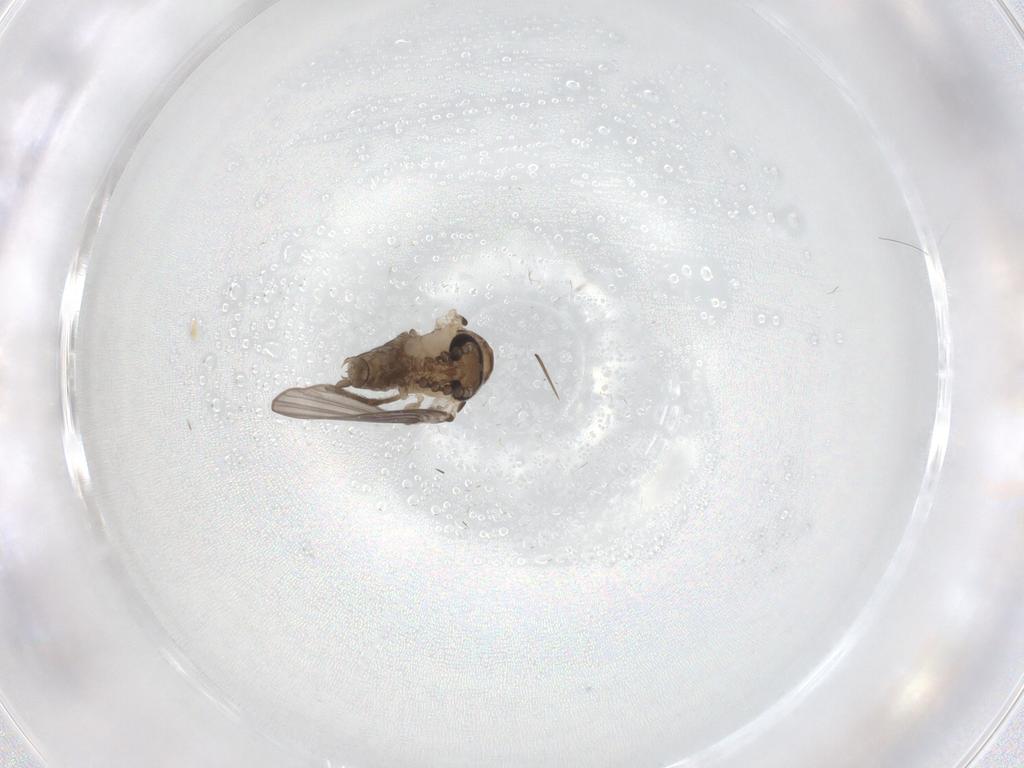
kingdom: Animalia
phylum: Arthropoda
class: Insecta
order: Diptera
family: Psychodidae
